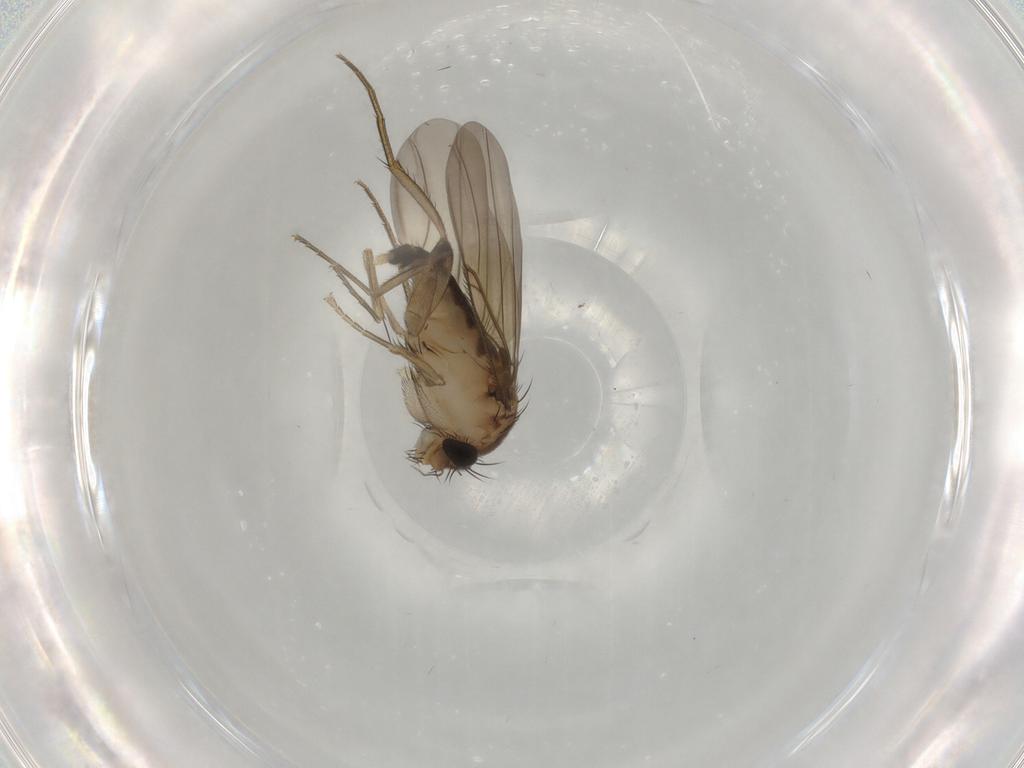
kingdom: Animalia
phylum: Arthropoda
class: Insecta
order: Diptera
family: Phoridae
